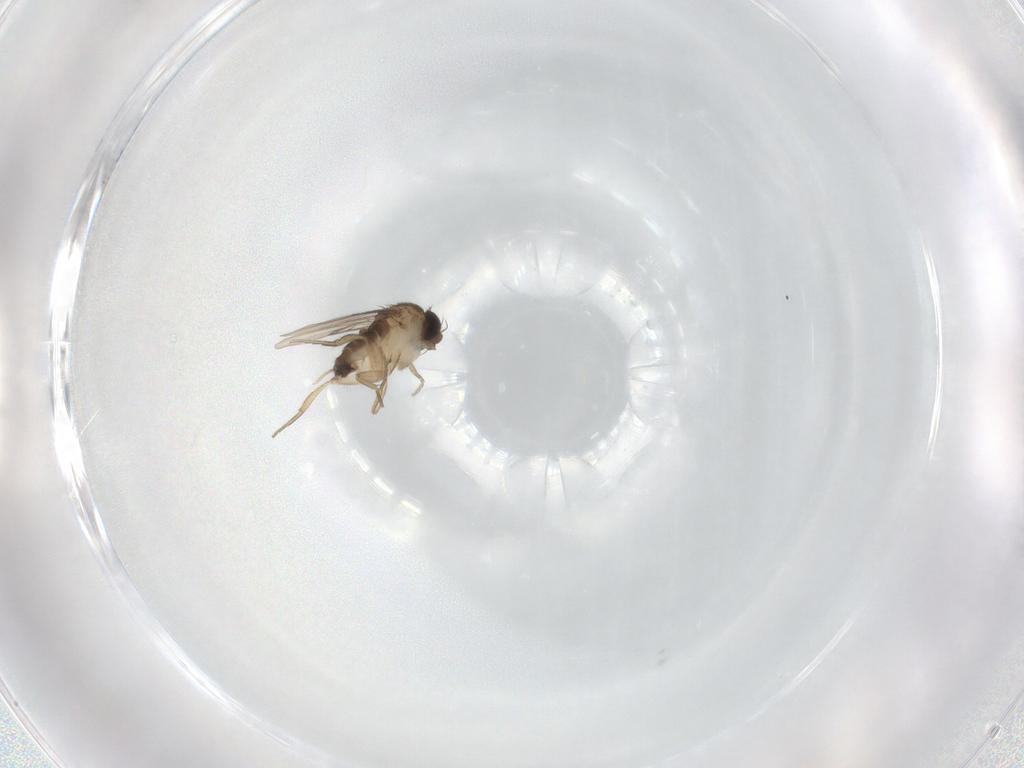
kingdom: Animalia
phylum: Arthropoda
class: Insecta
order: Diptera
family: Phoridae
